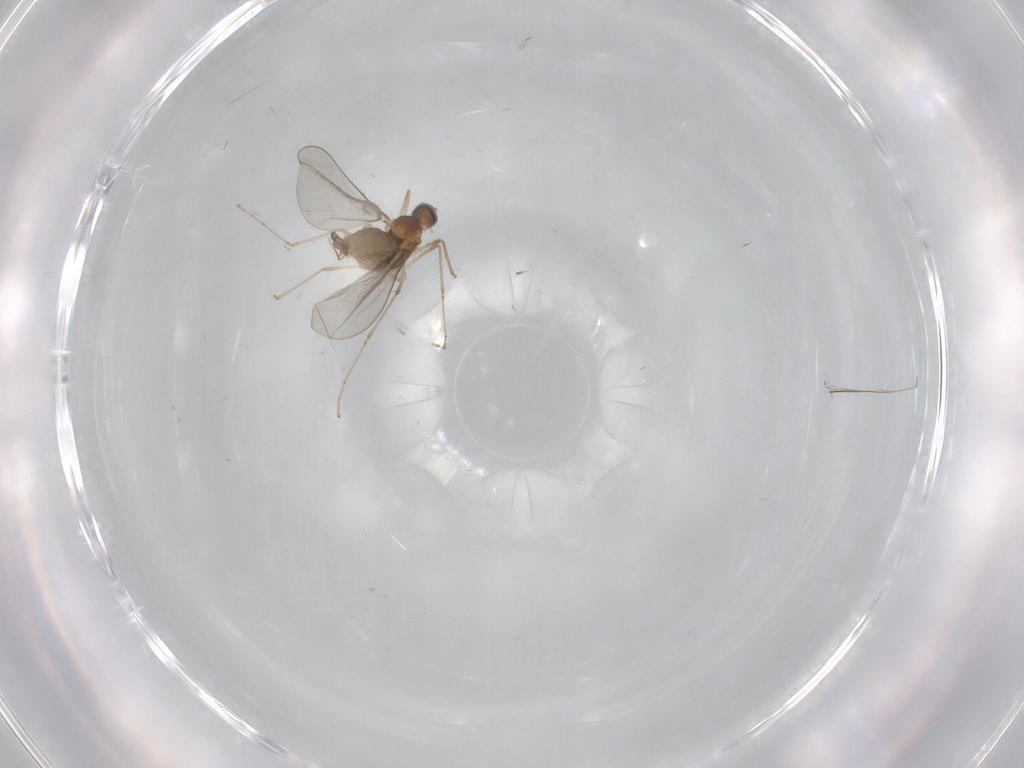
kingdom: Animalia
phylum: Arthropoda
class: Insecta
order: Diptera
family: Cecidomyiidae
